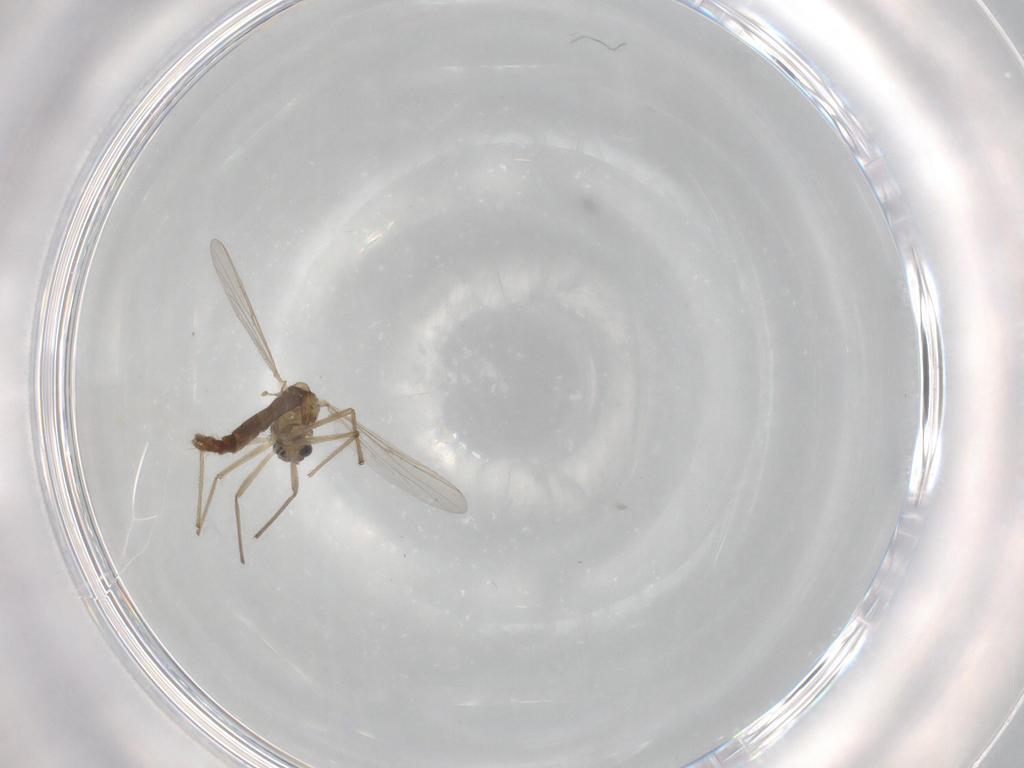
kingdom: Animalia
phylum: Arthropoda
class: Insecta
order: Diptera
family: Chironomidae
